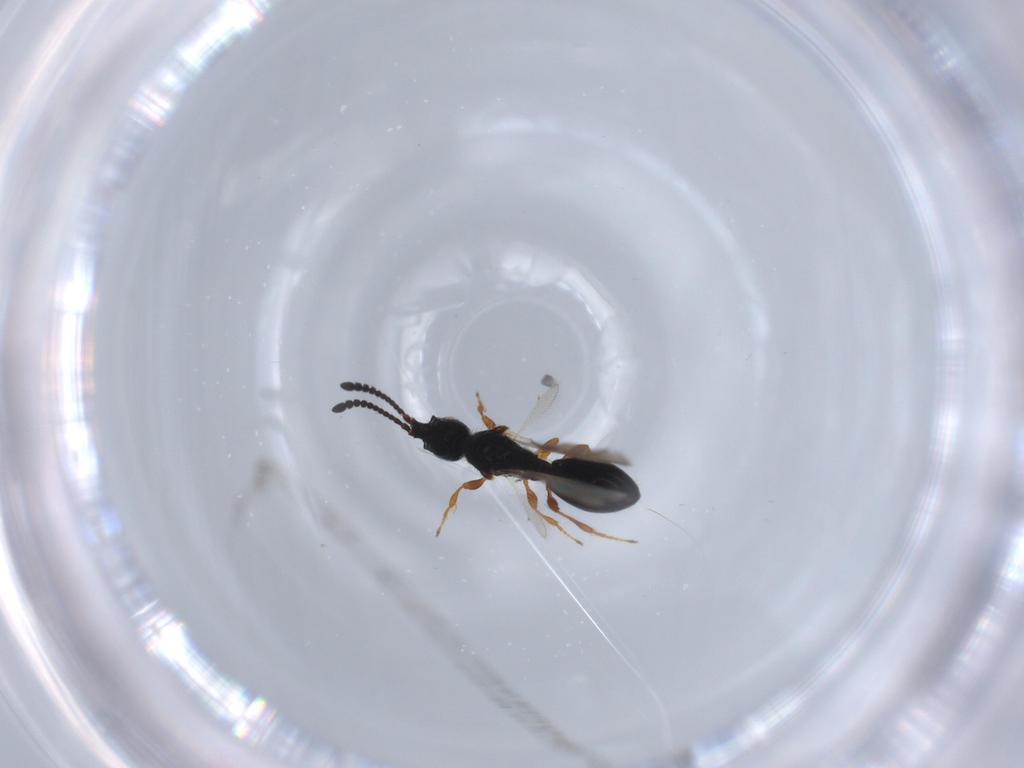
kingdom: Animalia
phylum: Arthropoda
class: Insecta
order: Hymenoptera
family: Diapriidae
